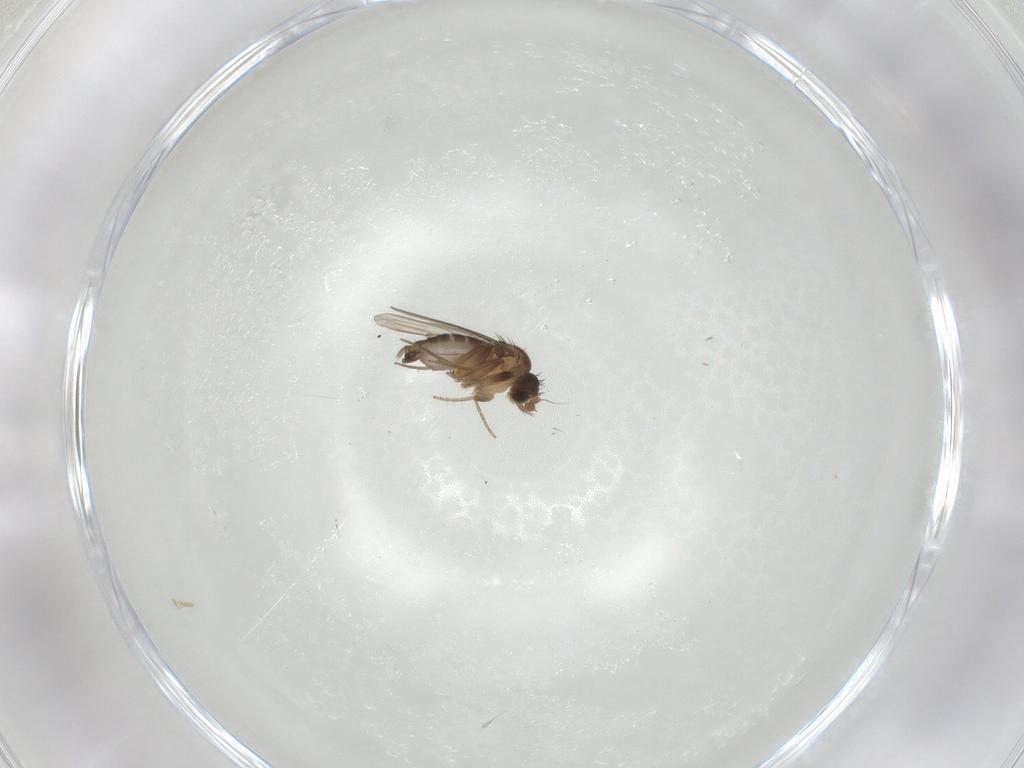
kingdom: Animalia
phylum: Arthropoda
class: Insecta
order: Diptera
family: Phoridae
